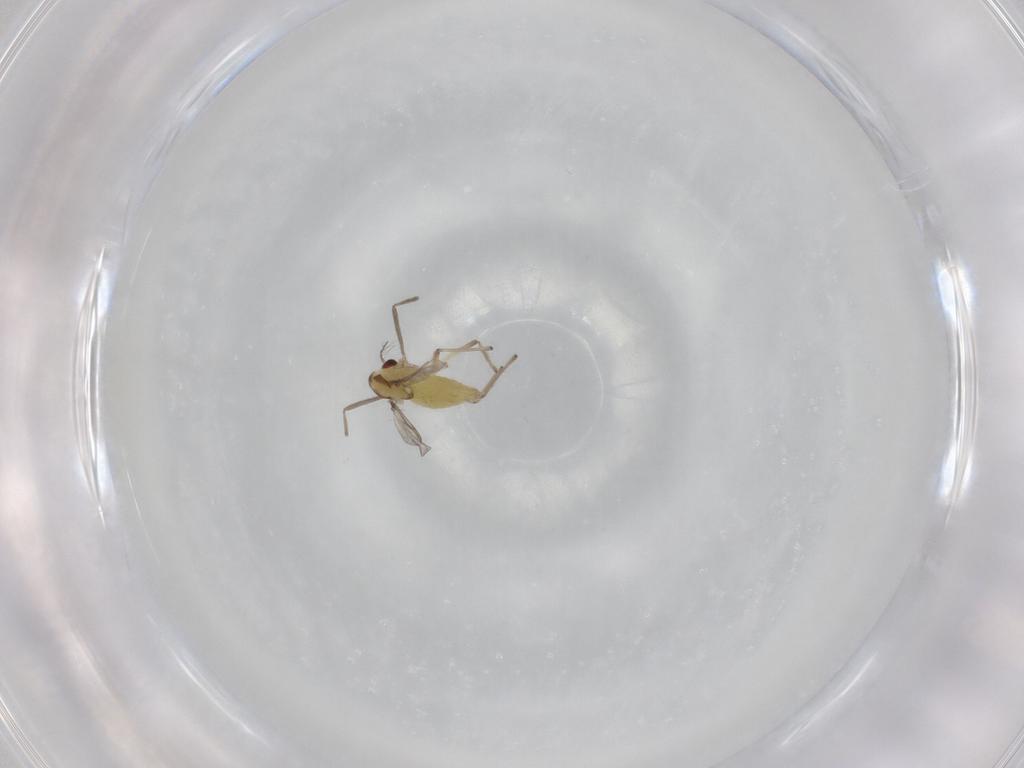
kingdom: Animalia
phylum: Arthropoda
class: Insecta
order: Diptera
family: Chironomidae
